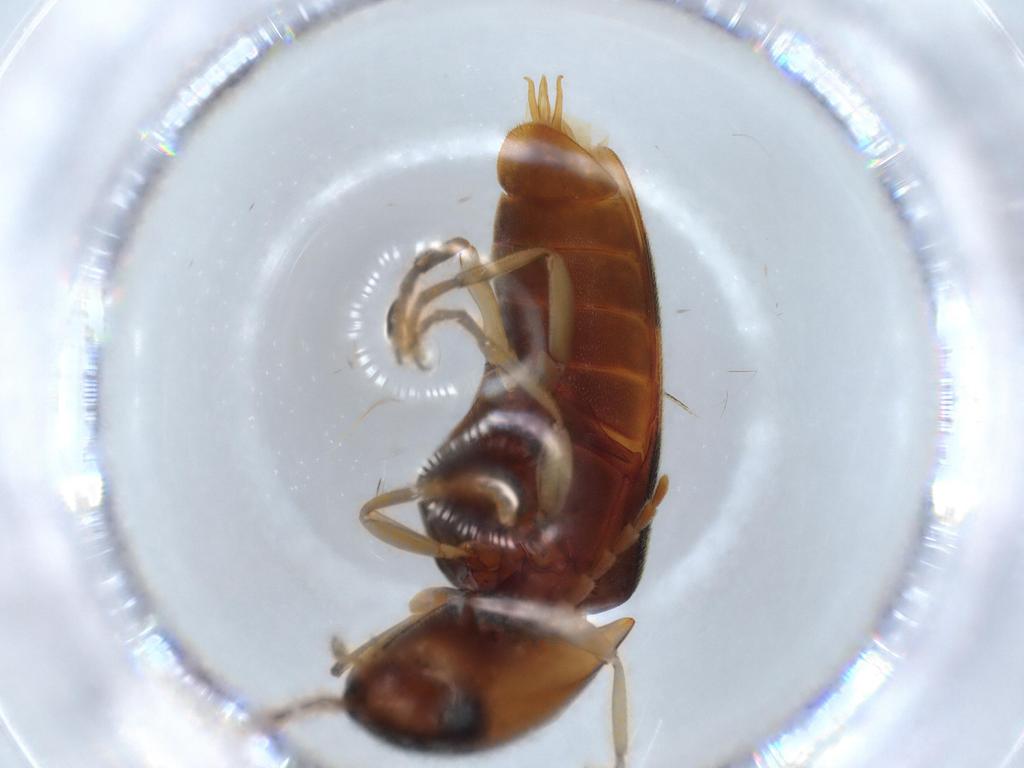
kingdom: Animalia
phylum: Arthropoda
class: Insecta
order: Coleoptera
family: Elateridae
